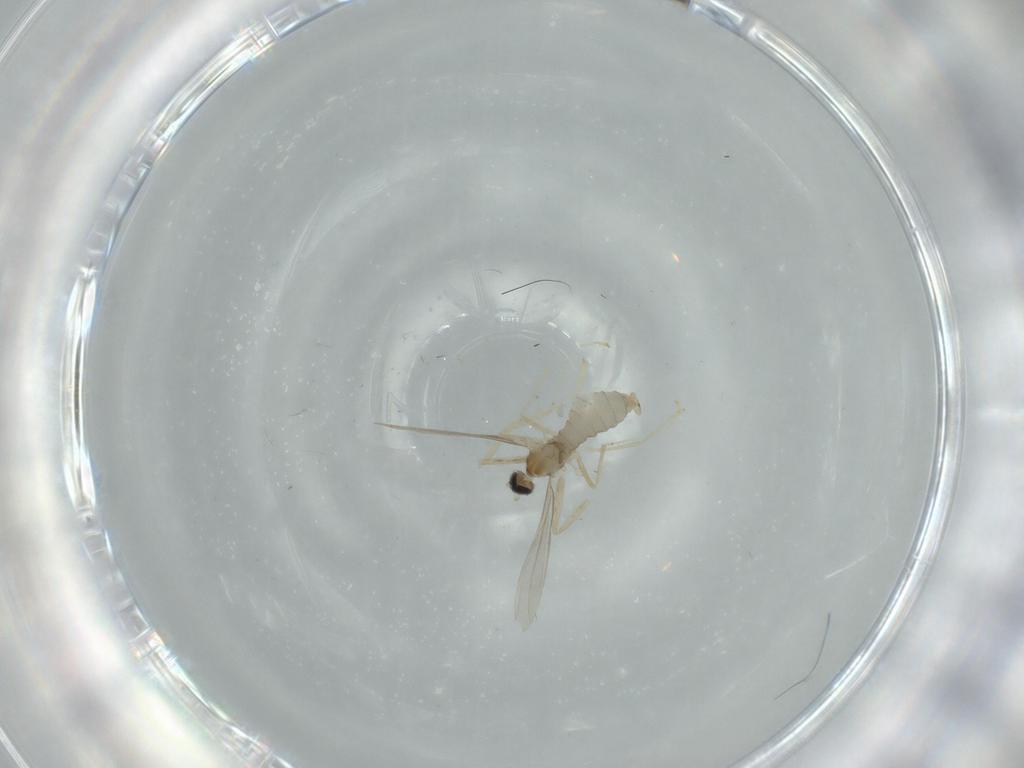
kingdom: Animalia
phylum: Arthropoda
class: Insecta
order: Diptera
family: Cecidomyiidae
